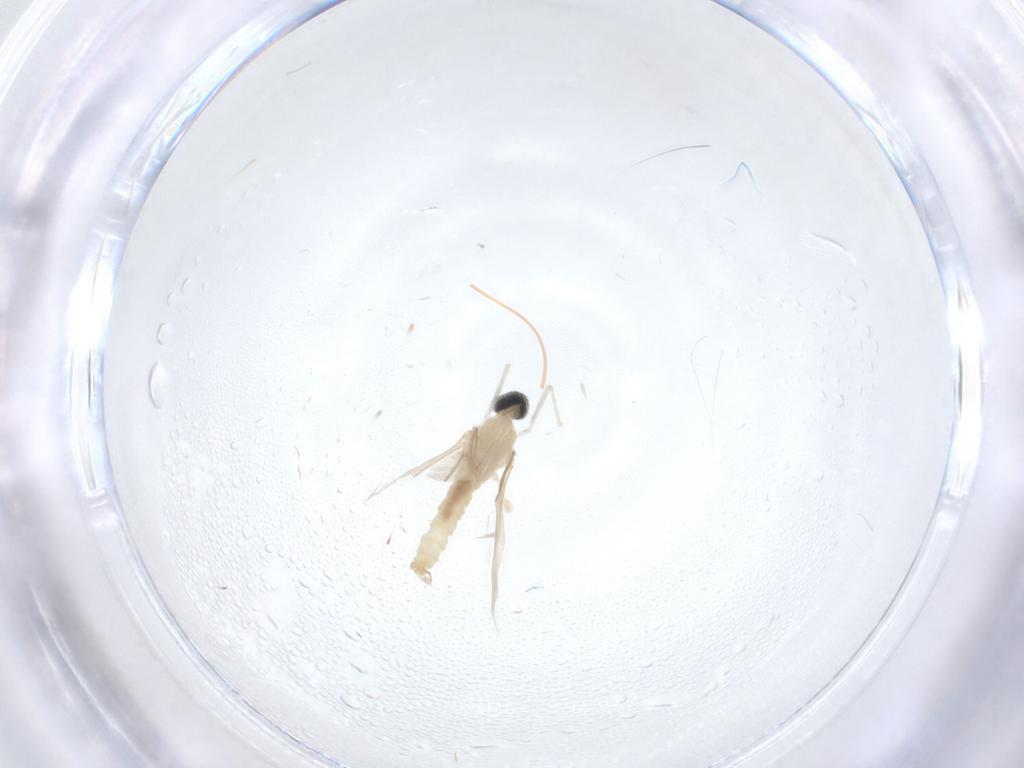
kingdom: Animalia
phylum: Arthropoda
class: Insecta
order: Diptera
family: Cecidomyiidae
